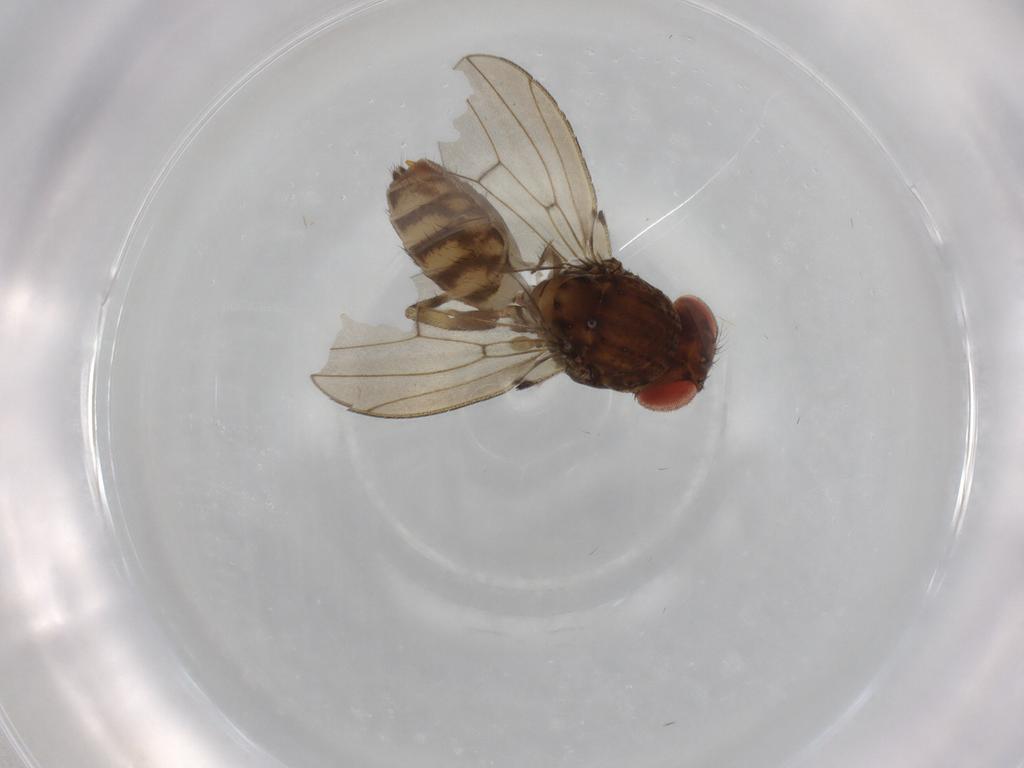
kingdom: Animalia
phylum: Arthropoda
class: Insecta
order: Diptera
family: Drosophilidae
